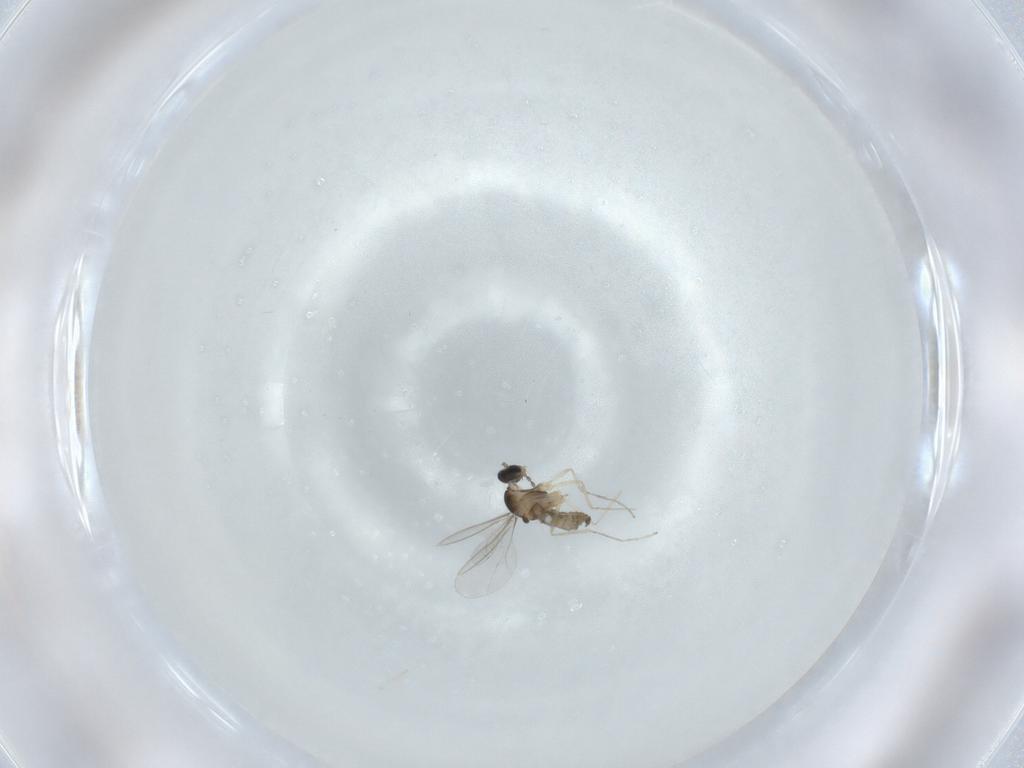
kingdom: Animalia
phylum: Arthropoda
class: Insecta
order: Diptera
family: Cecidomyiidae
